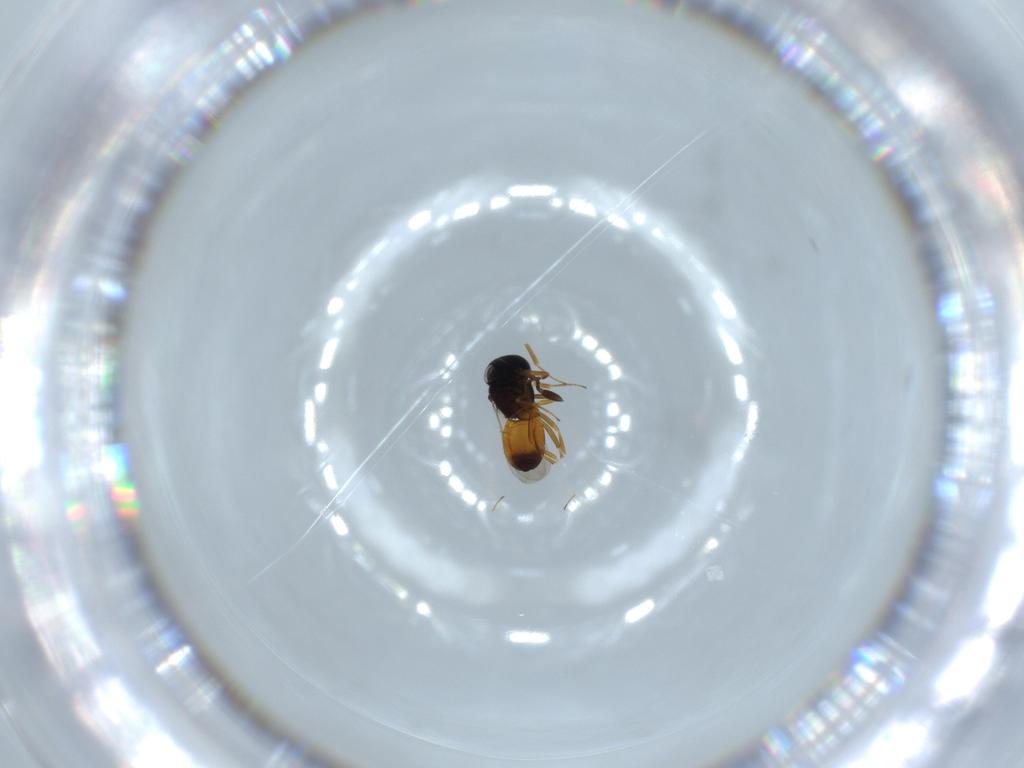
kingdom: Animalia
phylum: Arthropoda
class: Insecta
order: Hymenoptera
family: Scelionidae
